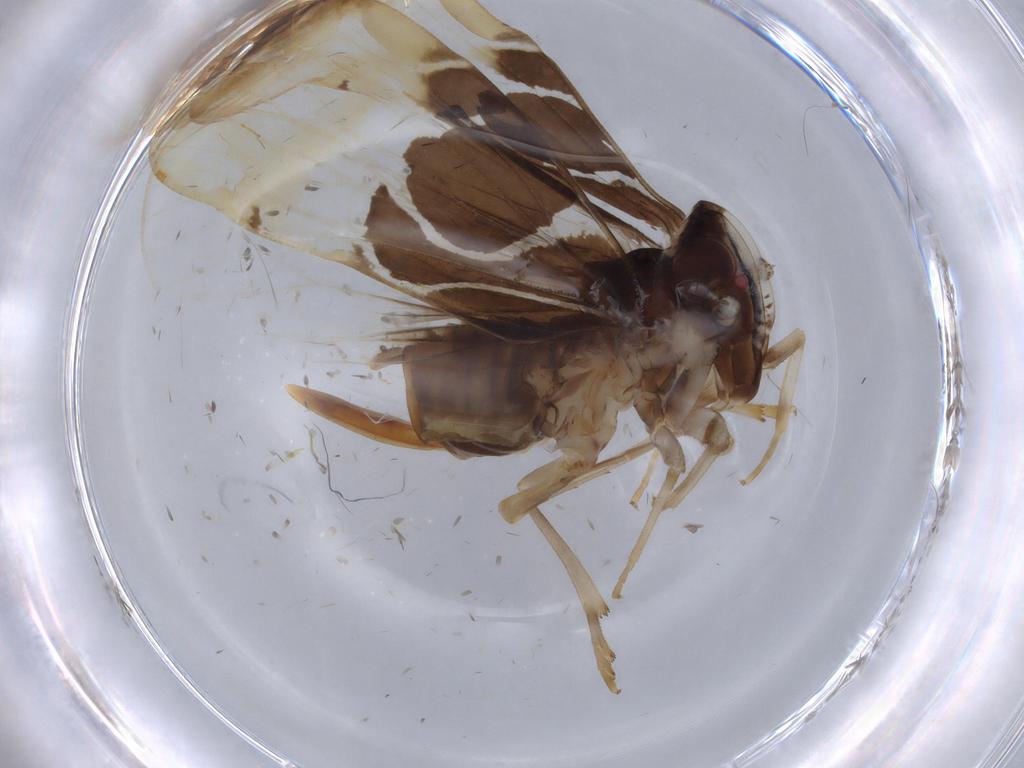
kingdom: Animalia
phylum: Arthropoda
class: Insecta
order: Hemiptera
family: Cixiidae
